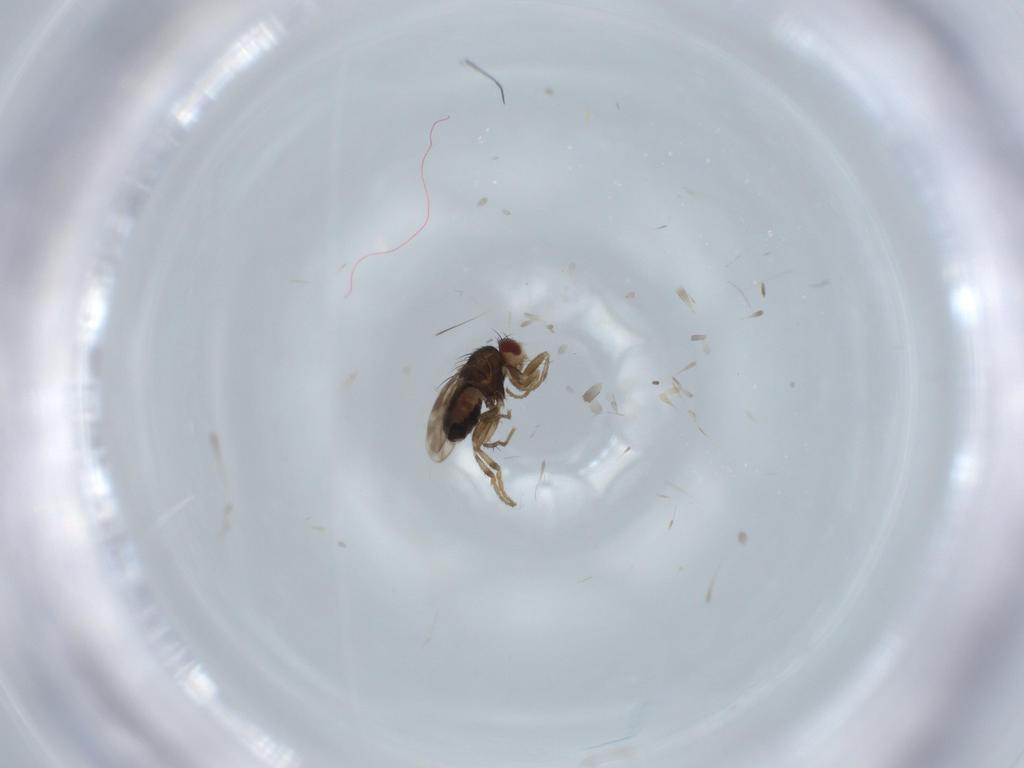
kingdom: Animalia
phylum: Arthropoda
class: Insecta
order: Diptera
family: Sphaeroceridae
